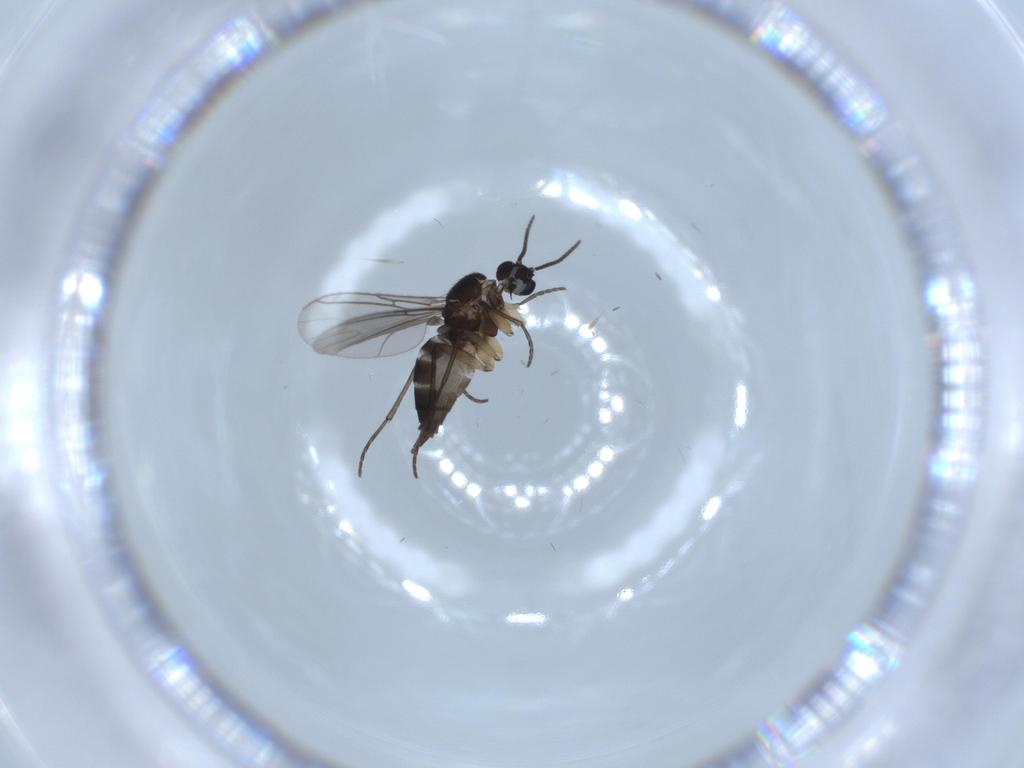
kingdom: Animalia
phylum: Arthropoda
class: Insecta
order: Diptera
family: Sciaridae
